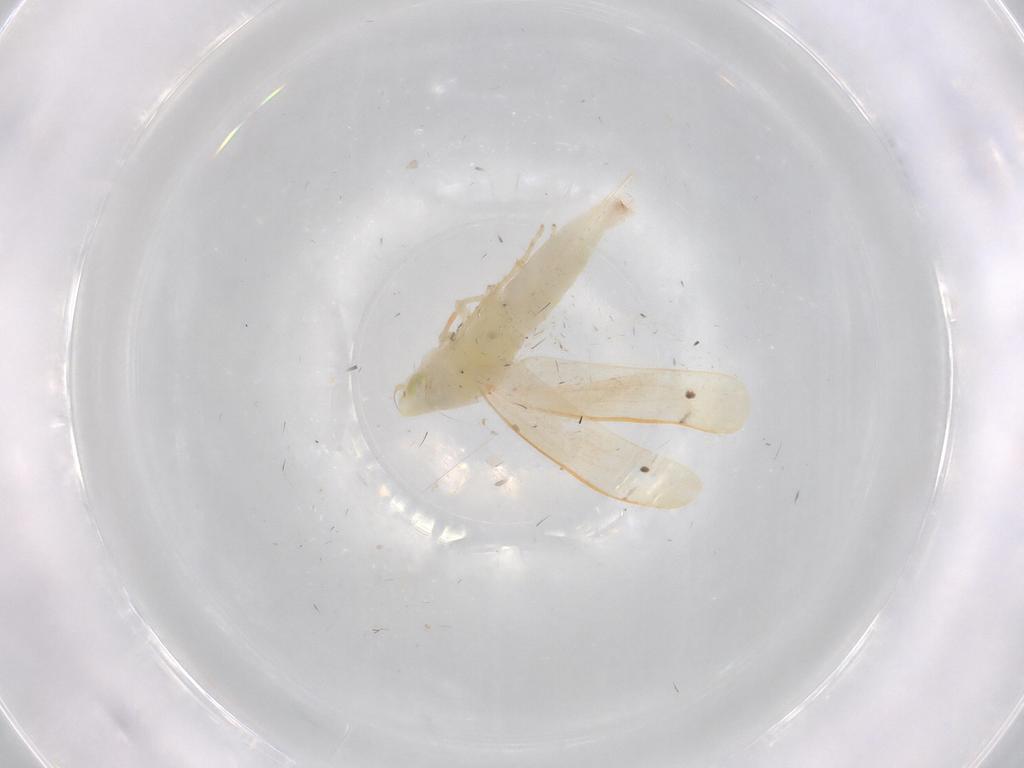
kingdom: Animalia
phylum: Arthropoda
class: Insecta
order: Hemiptera
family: Cicadellidae
